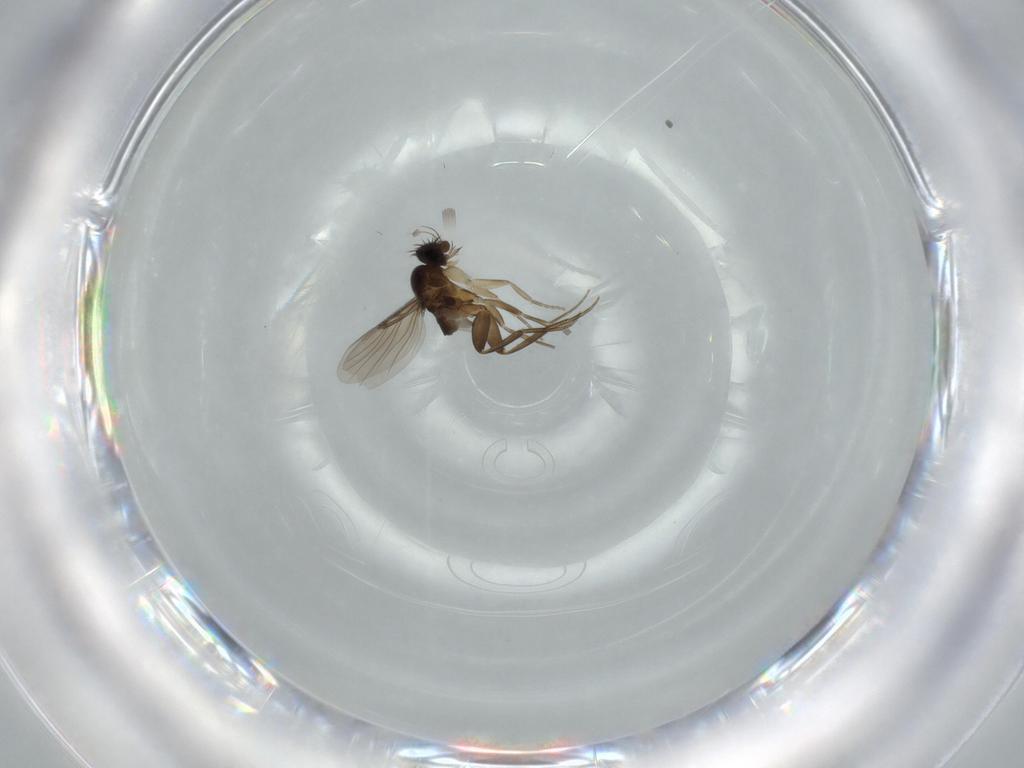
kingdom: Animalia
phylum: Arthropoda
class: Insecta
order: Diptera
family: Phoridae
